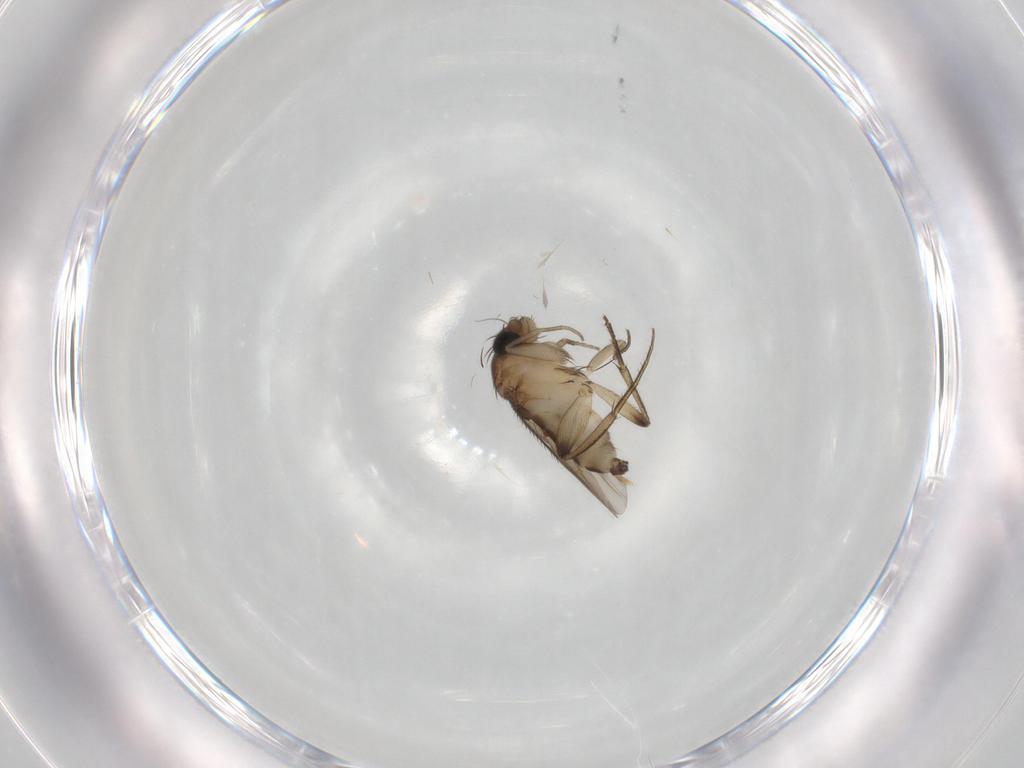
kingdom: Animalia
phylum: Arthropoda
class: Insecta
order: Diptera
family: Phoridae
